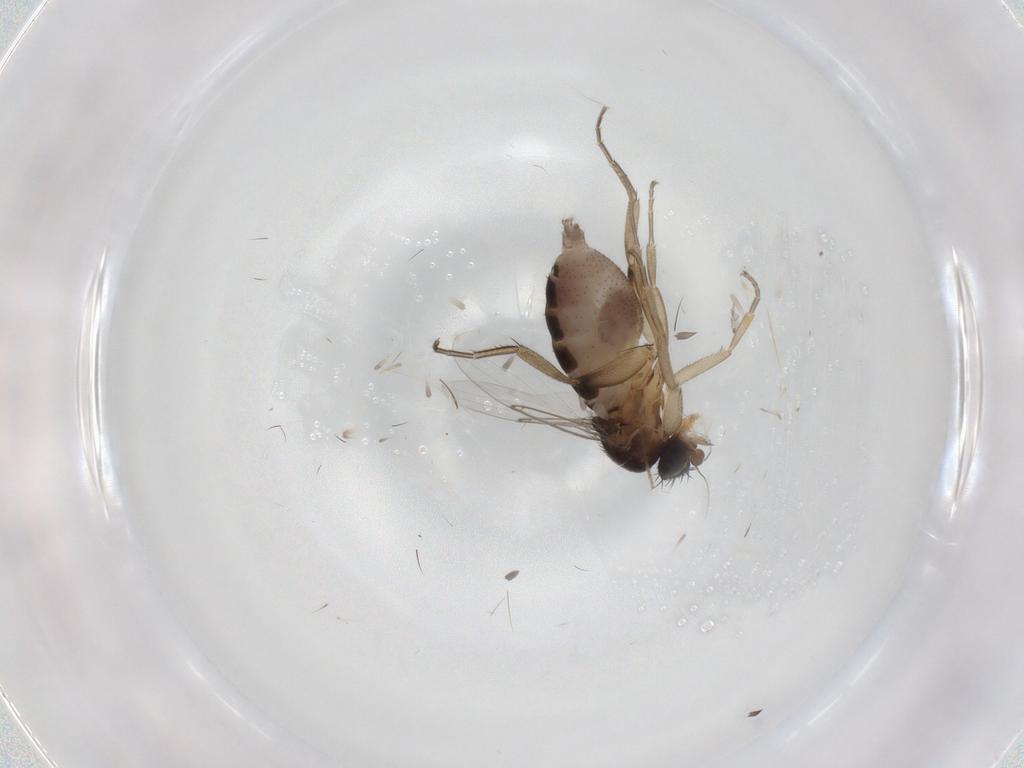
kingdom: Animalia
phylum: Arthropoda
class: Insecta
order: Diptera
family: Phoridae
